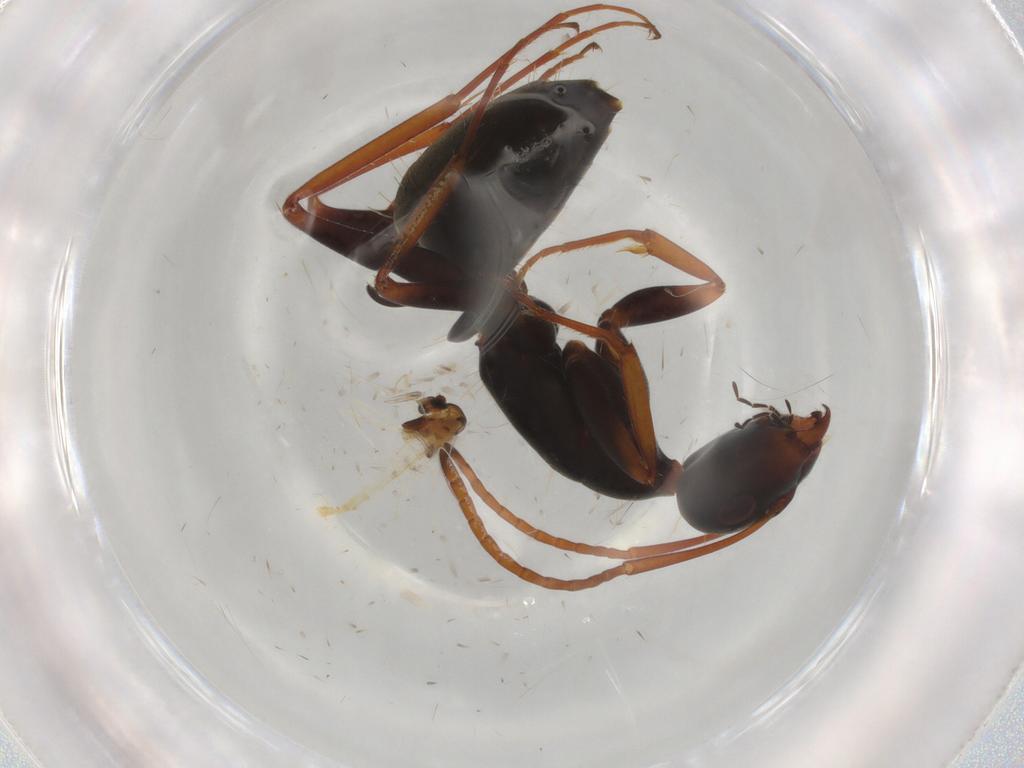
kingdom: Animalia
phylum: Arthropoda
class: Insecta
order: Hymenoptera
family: Formicidae
